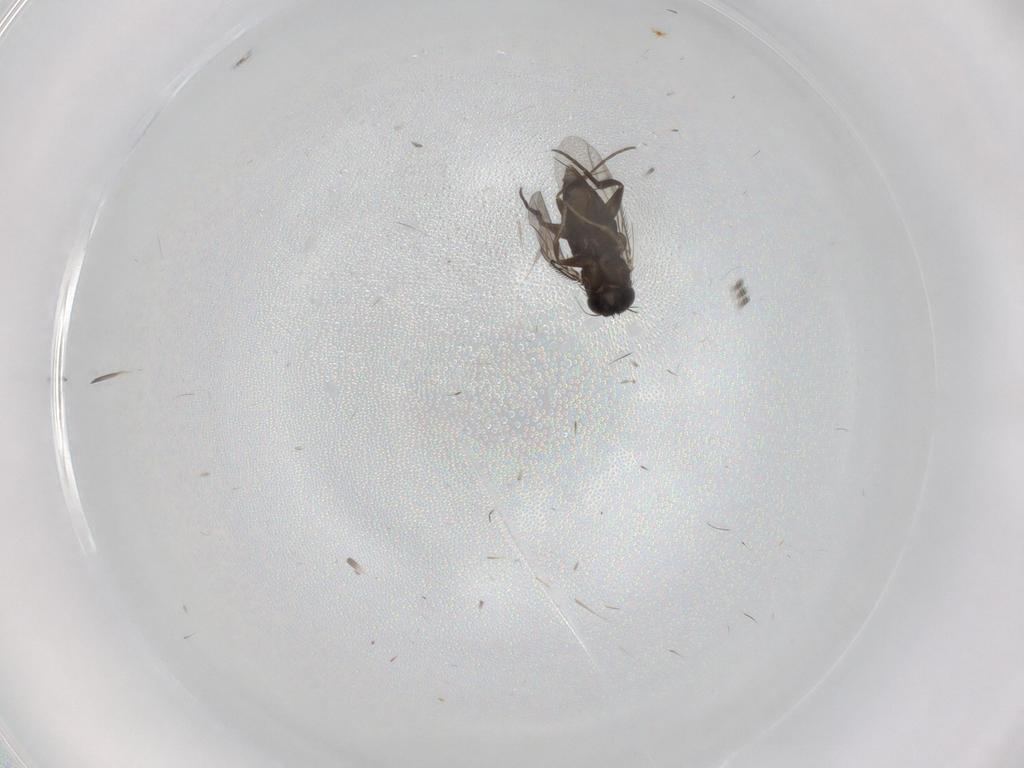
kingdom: Animalia
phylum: Arthropoda
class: Insecta
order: Diptera
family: Phoridae
